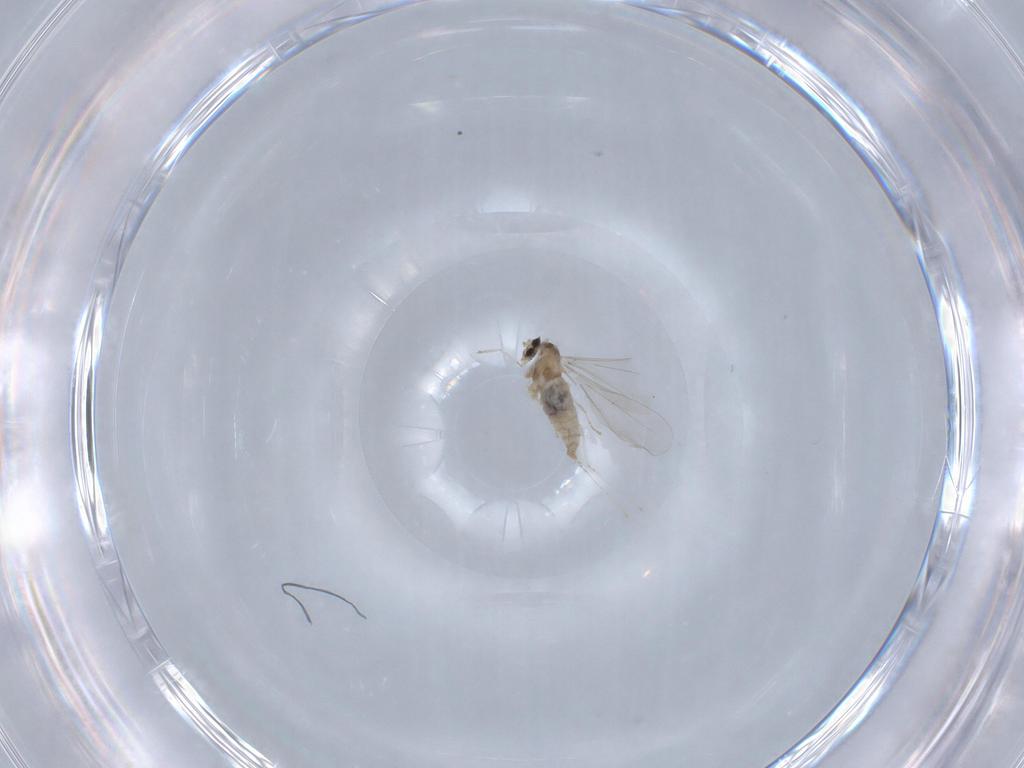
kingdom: Animalia
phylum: Arthropoda
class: Insecta
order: Diptera
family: Cecidomyiidae
